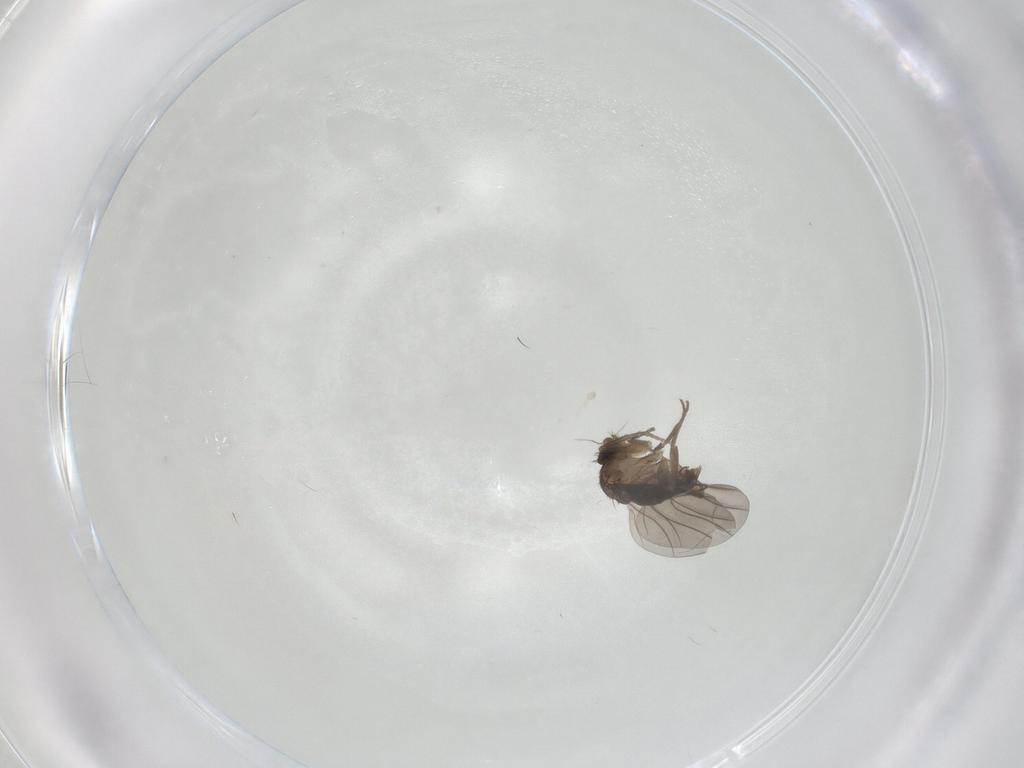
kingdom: Animalia
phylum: Arthropoda
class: Insecta
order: Diptera
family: Phoridae
